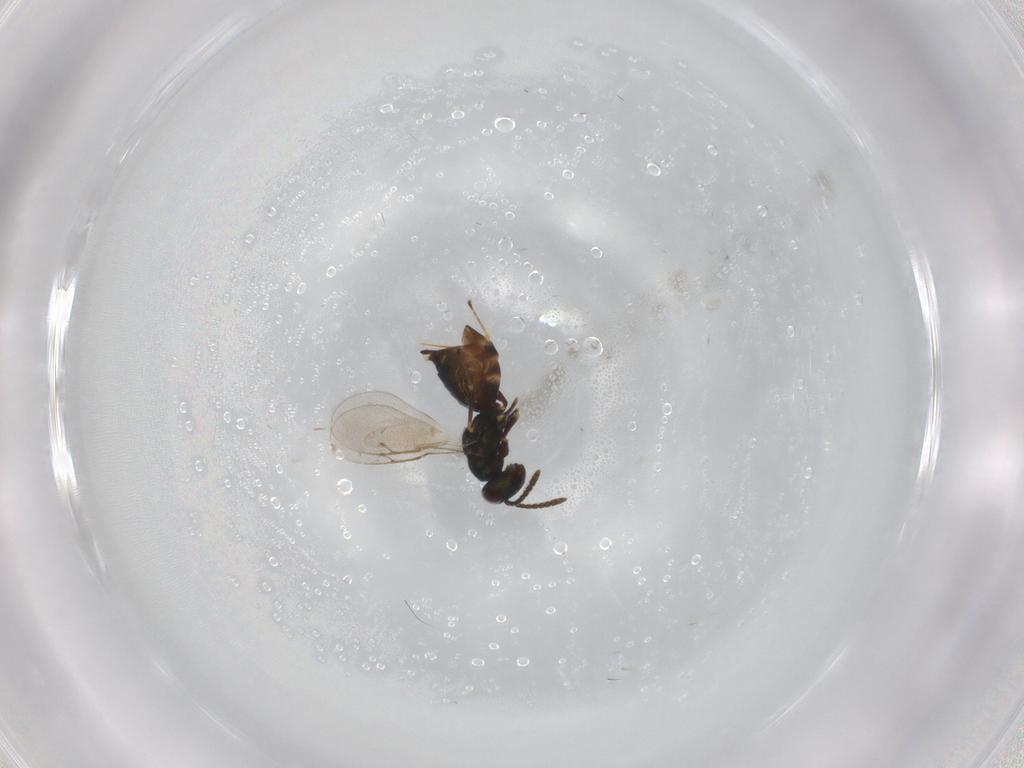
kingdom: Animalia
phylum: Arthropoda
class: Insecta
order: Hymenoptera
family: Pteromalidae
